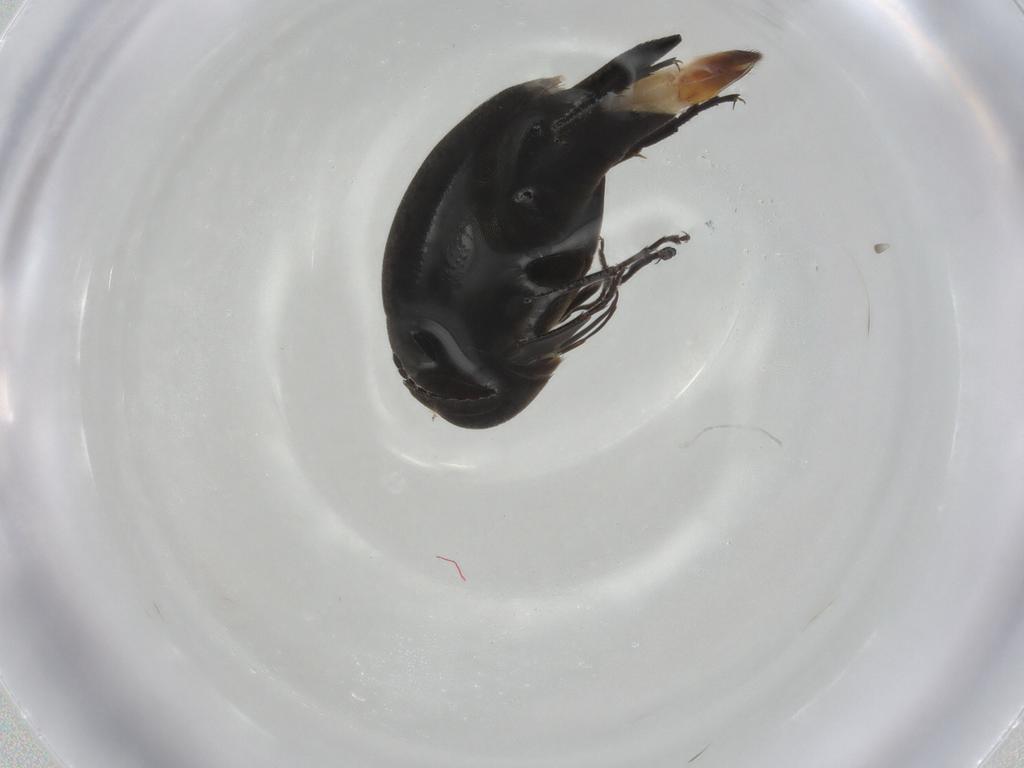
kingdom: Animalia
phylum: Arthropoda
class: Insecta
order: Coleoptera
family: Mordellidae
